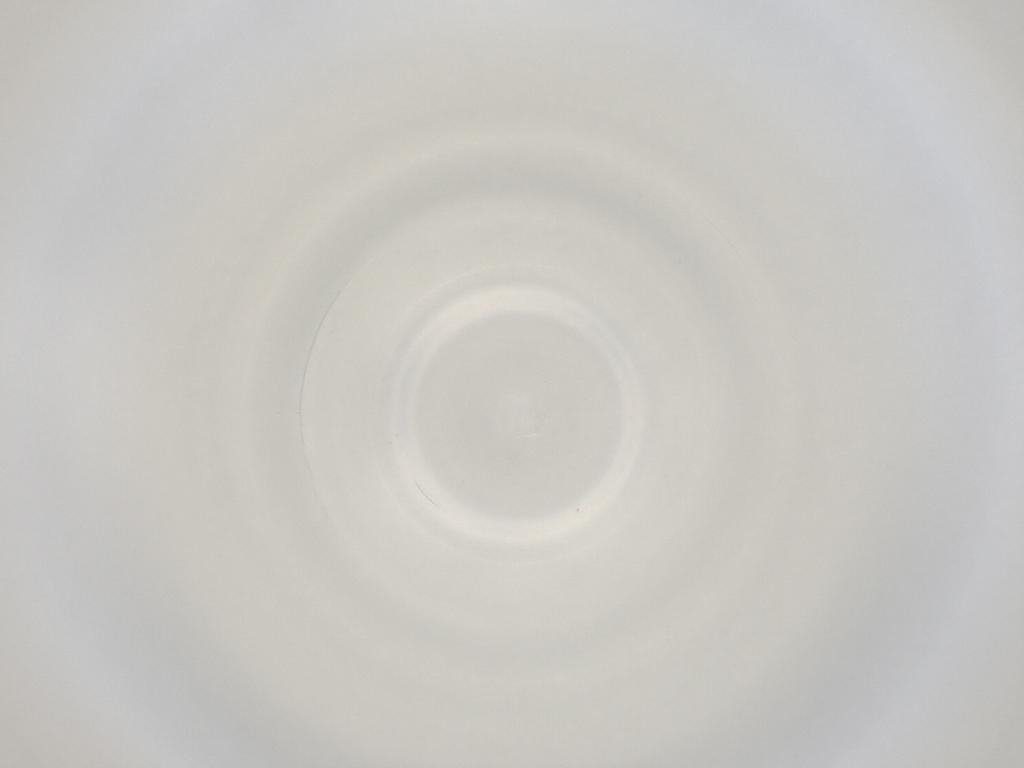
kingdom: Animalia
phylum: Arthropoda
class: Insecta
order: Diptera
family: Cecidomyiidae
